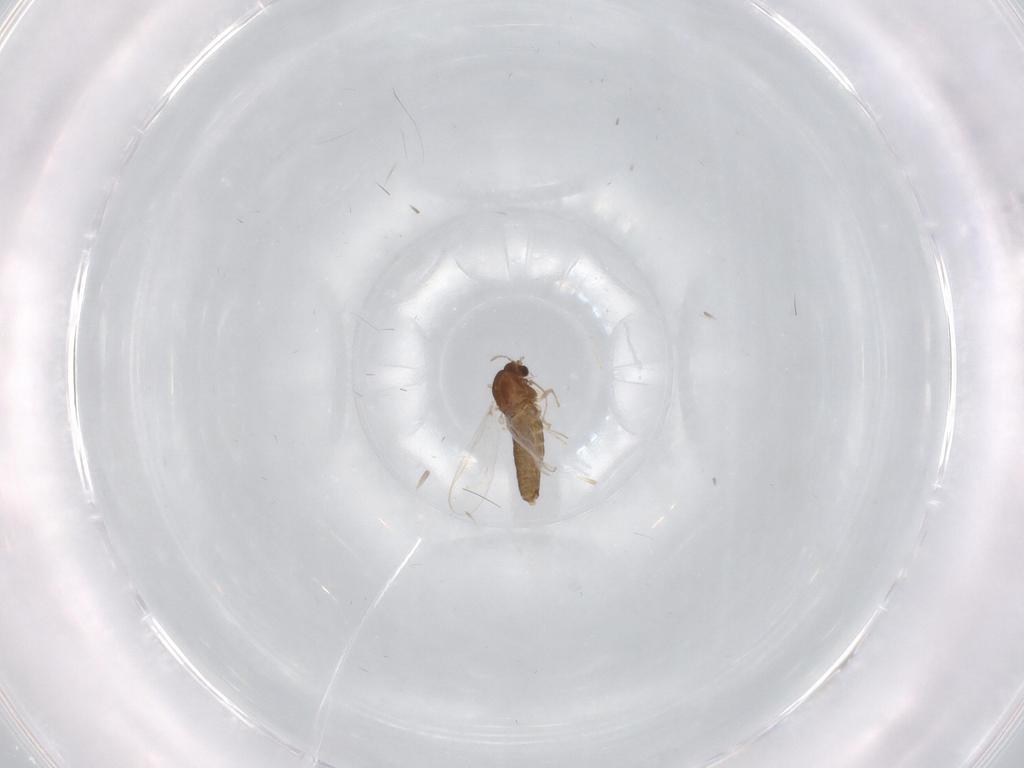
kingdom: Animalia
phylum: Arthropoda
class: Insecta
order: Diptera
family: Chironomidae
